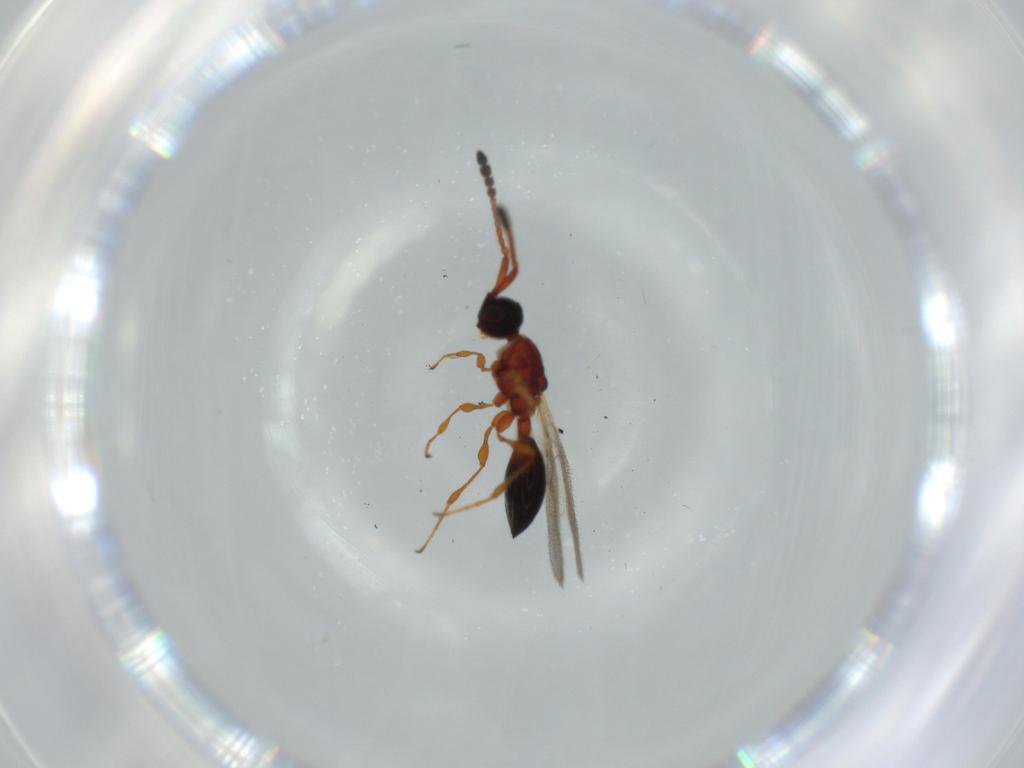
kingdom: Animalia
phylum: Arthropoda
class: Insecta
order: Hymenoptera
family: Diapriidae
